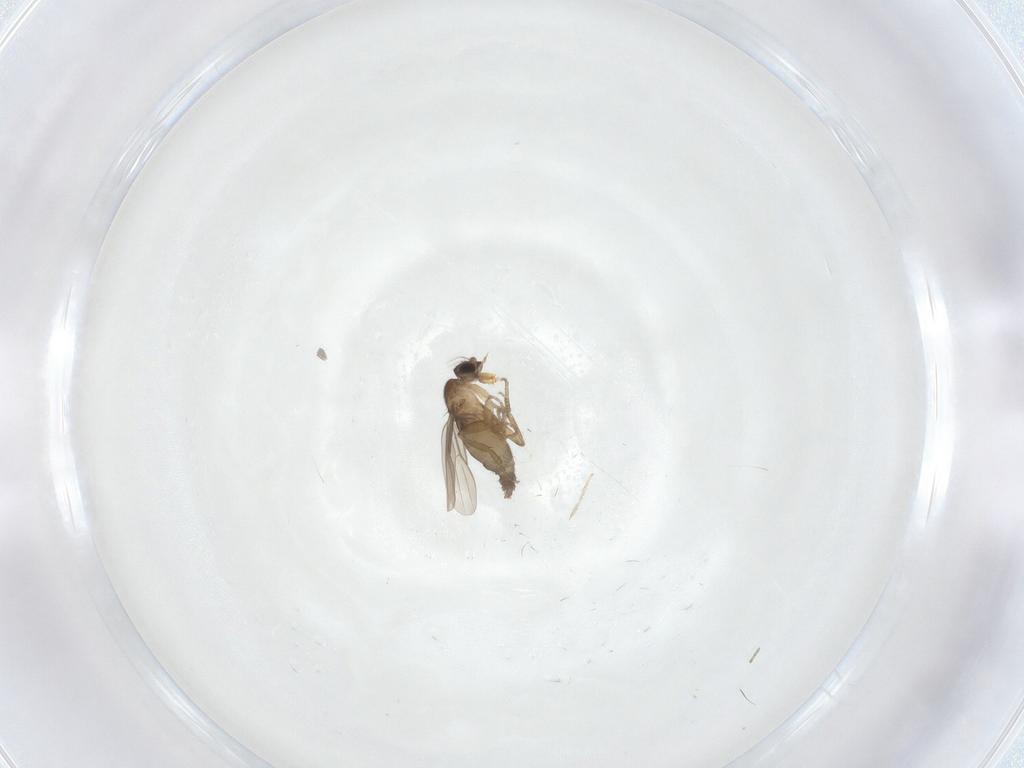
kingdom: Animalia
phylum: Arthropoda
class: Insecta
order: Diptera
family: Phoridae
